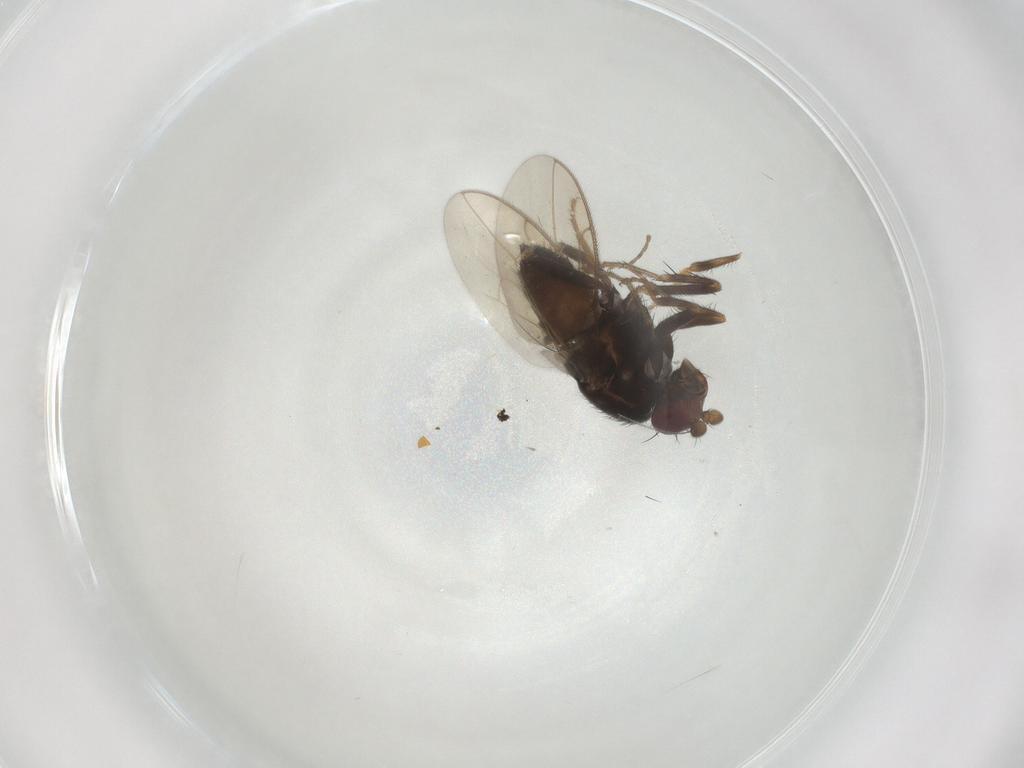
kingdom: Animalia
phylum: Arthropoda
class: Insecta
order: Diptera
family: Sphaeroceridae
